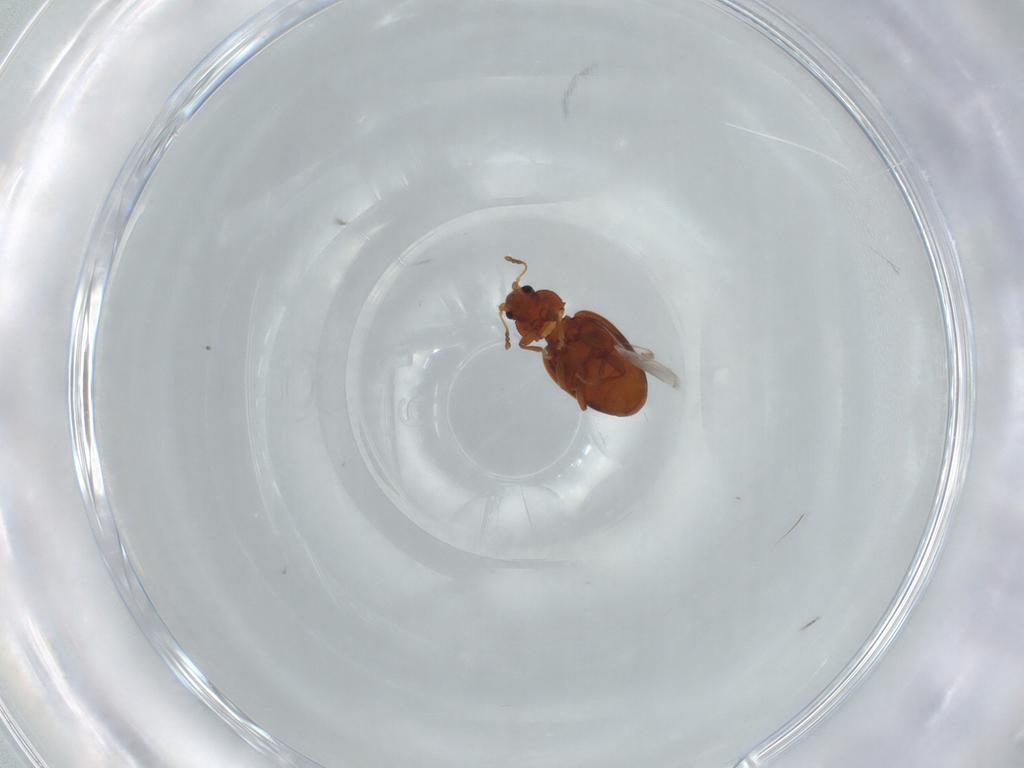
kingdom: Animalia
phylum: Arthropoda
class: Insecta
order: Coleoptera
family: Latridiidae
